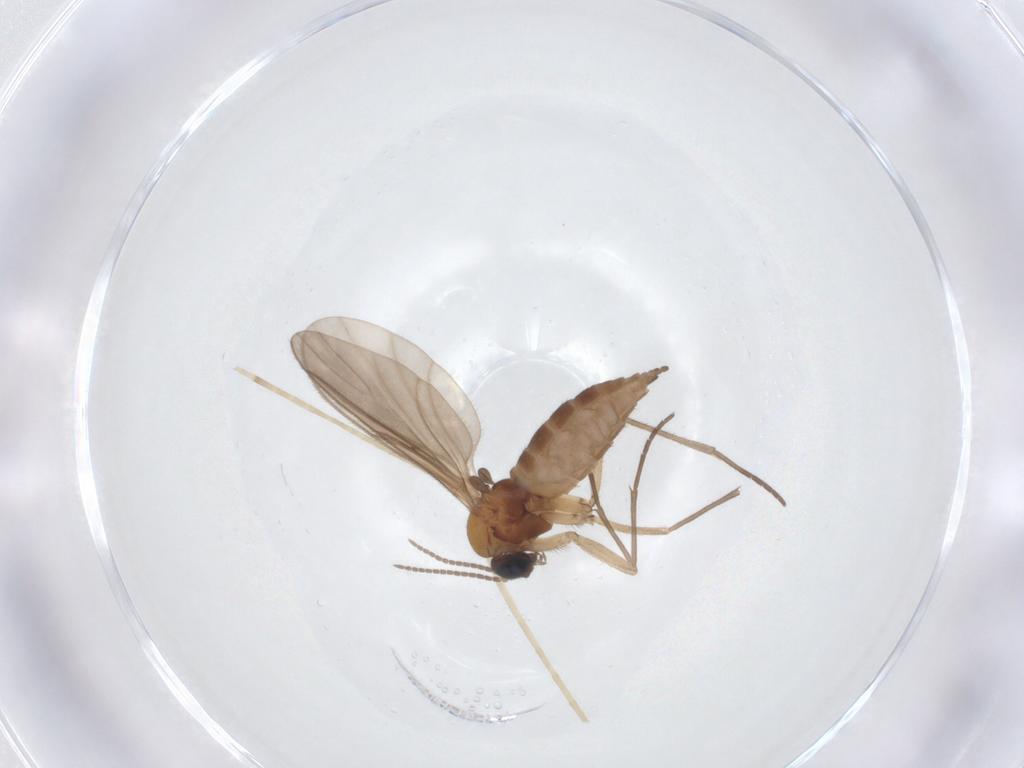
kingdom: Animalia
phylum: Arthropoda
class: Insecta
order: Diptera
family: Sciaridae
